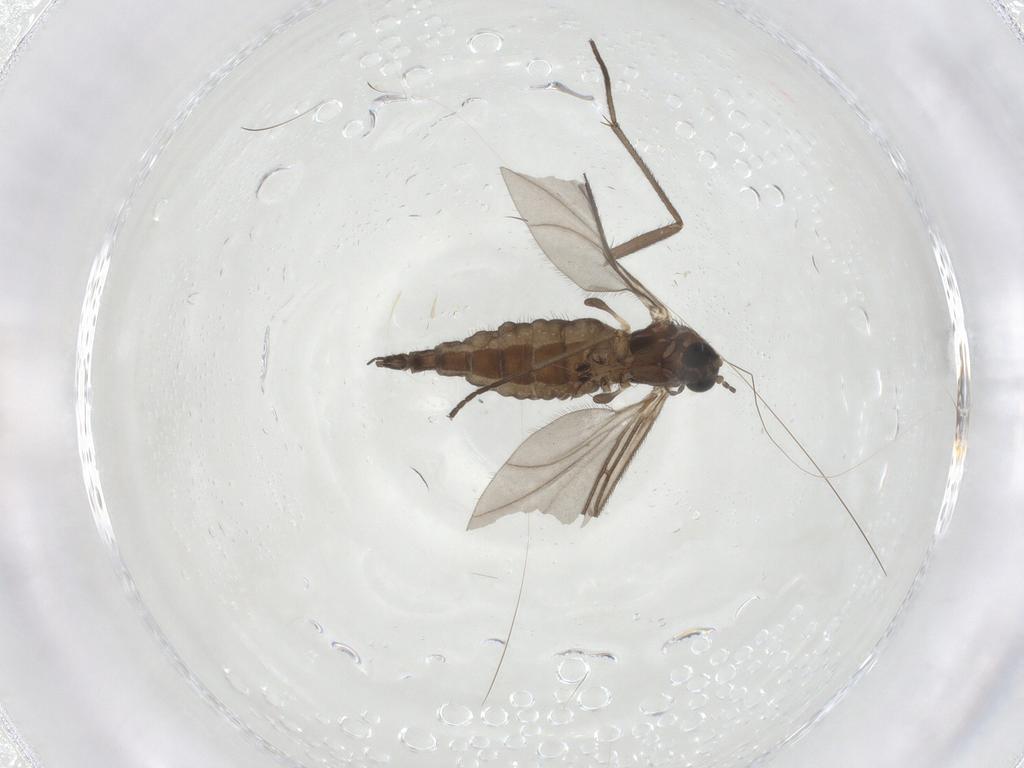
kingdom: Animalia
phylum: Arthropoda
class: Insecta
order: Diptera
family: Sciaridae
